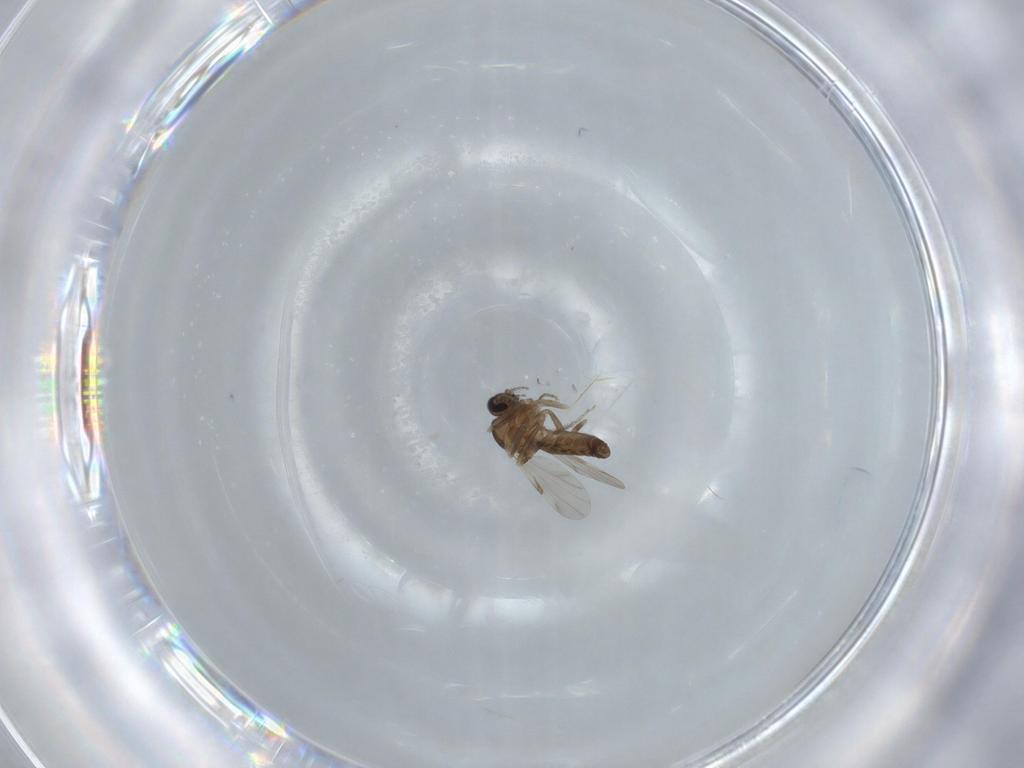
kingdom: Animalia
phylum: Arthropoda
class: Insecta
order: Diptera
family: Ceratopogonidae
